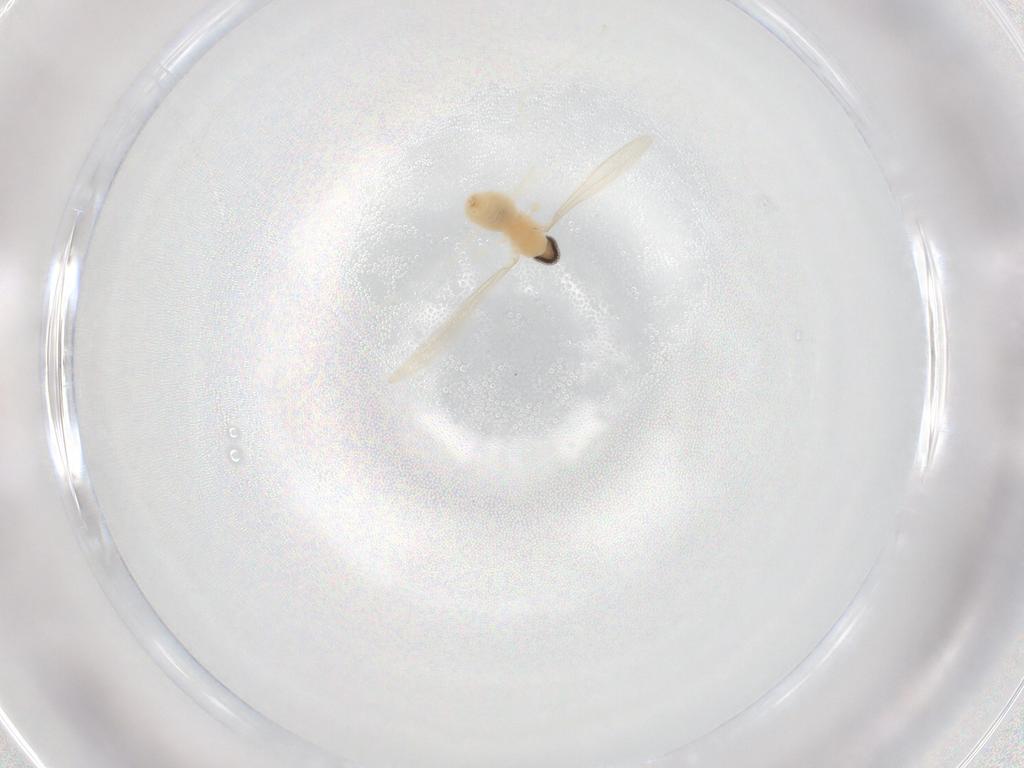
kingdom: Animalia
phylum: Arthropoda
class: Insecta
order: Diptera
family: Cecidomyiidae
